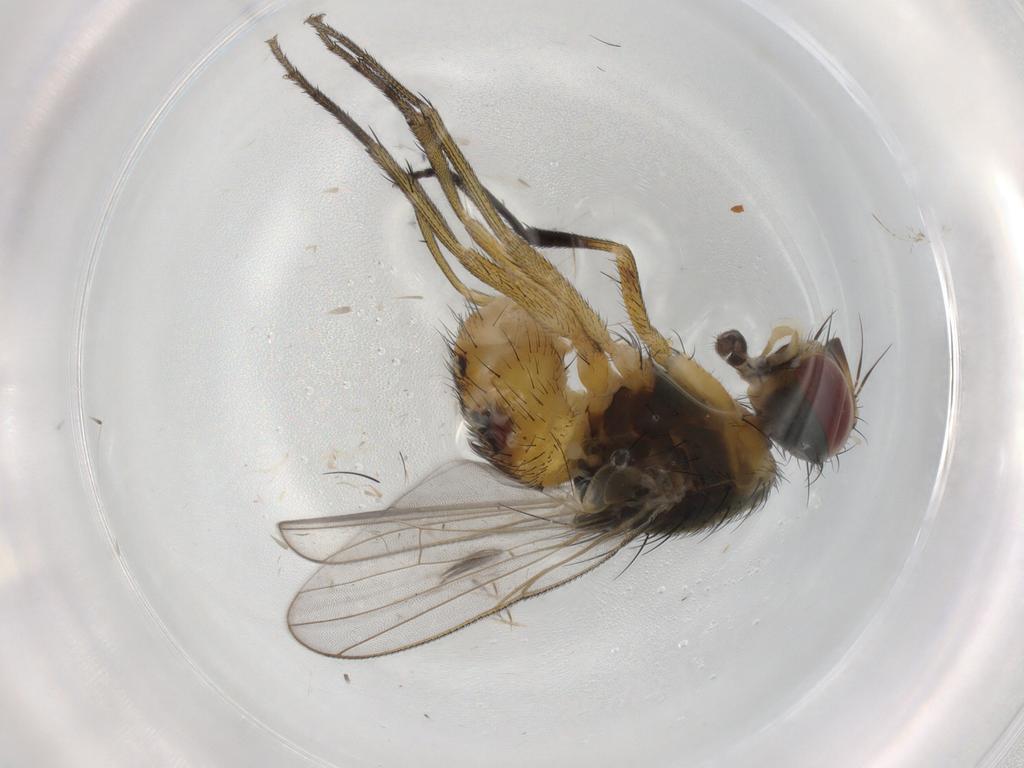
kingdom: Animalia
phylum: Arthropoda
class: Insecta
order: Diptera
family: Muscidae
